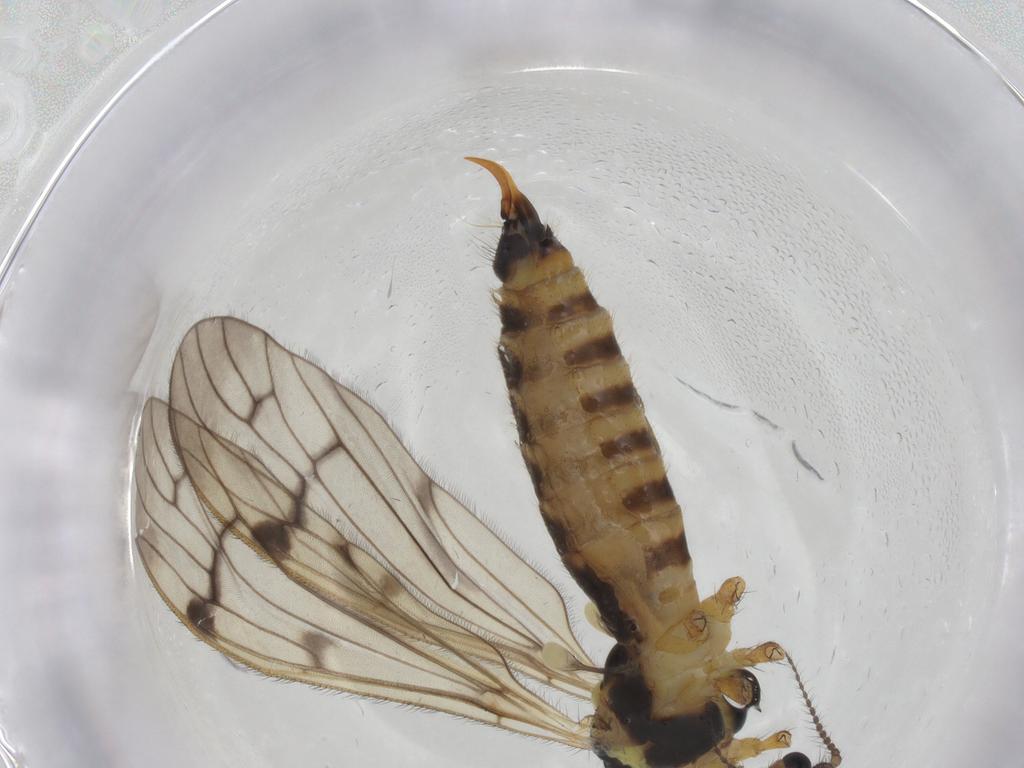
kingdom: Animalia
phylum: Arthropoda
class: Insecta
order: Diptera
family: Limoniidae
